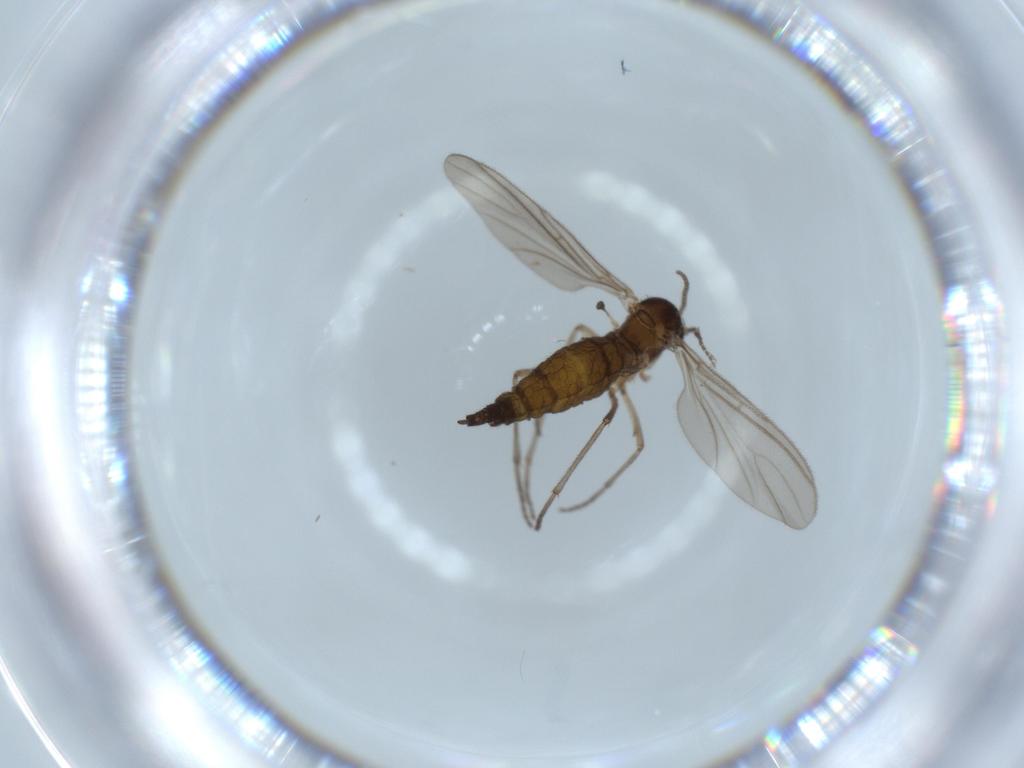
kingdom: Animalia
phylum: Arthropoda
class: Insecta
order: Diptera
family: Sciaridae
